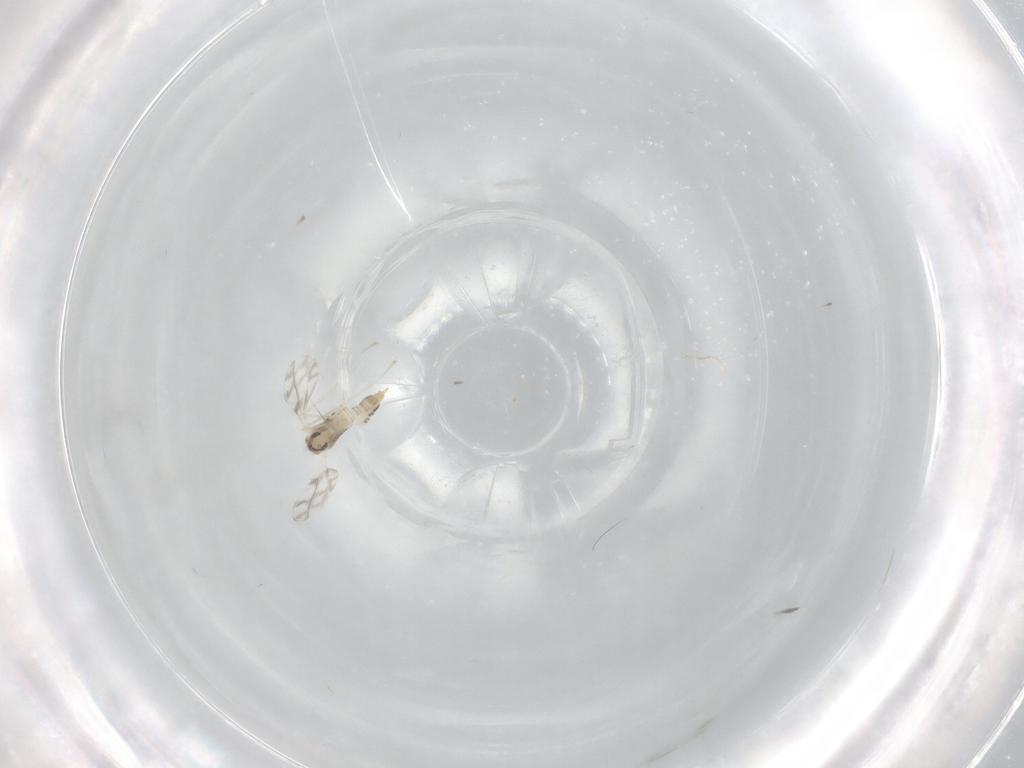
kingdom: Animalia
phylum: Arthropoda
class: Insecta
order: Diptera
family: Cecidomyiidae
